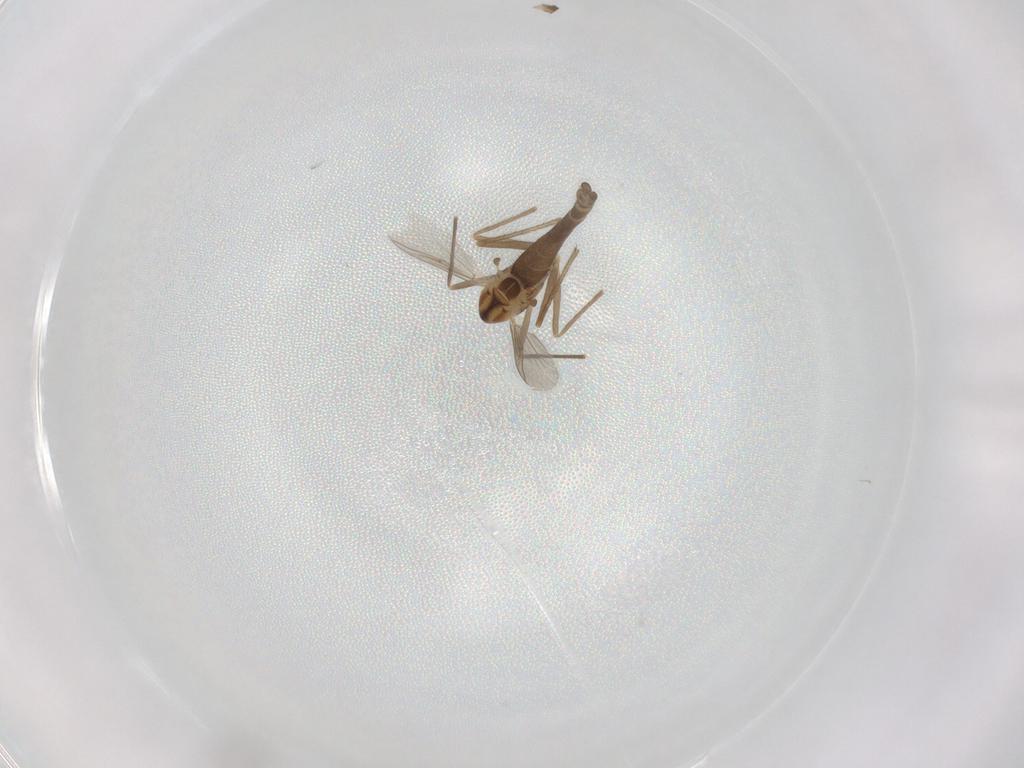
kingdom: Animalia
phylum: Arthropoda
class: Insecta
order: Diptera
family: Chironomidae
